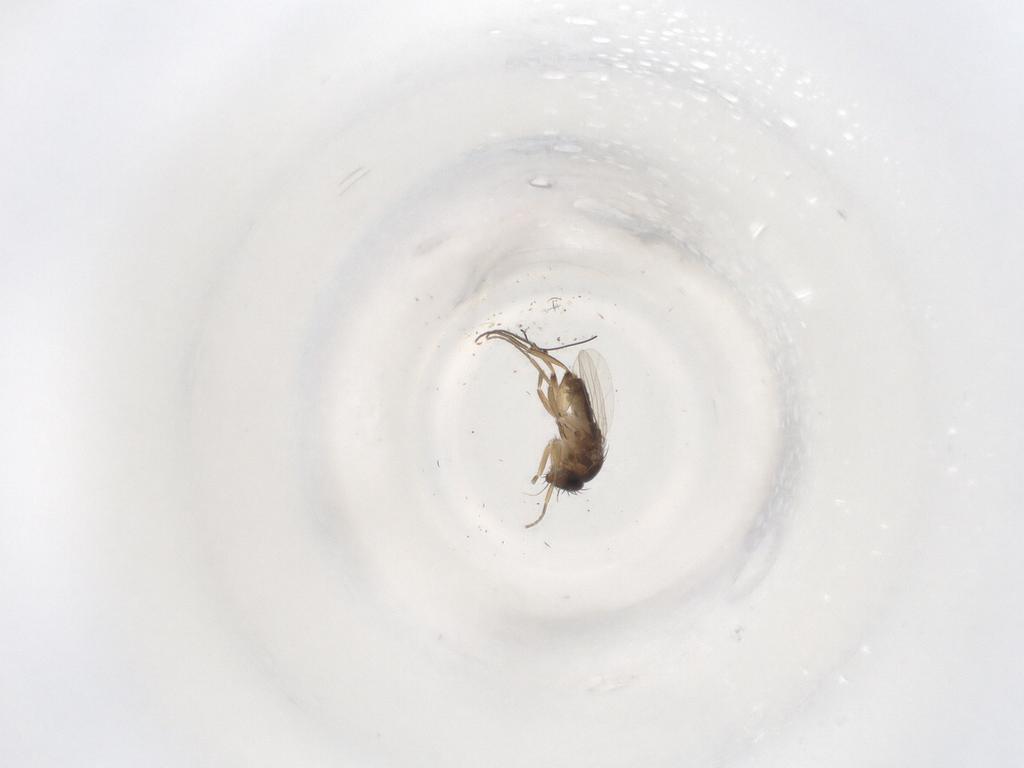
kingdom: Animalia
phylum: Arthropoda
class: Insecta
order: Diptera
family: Phoridae
